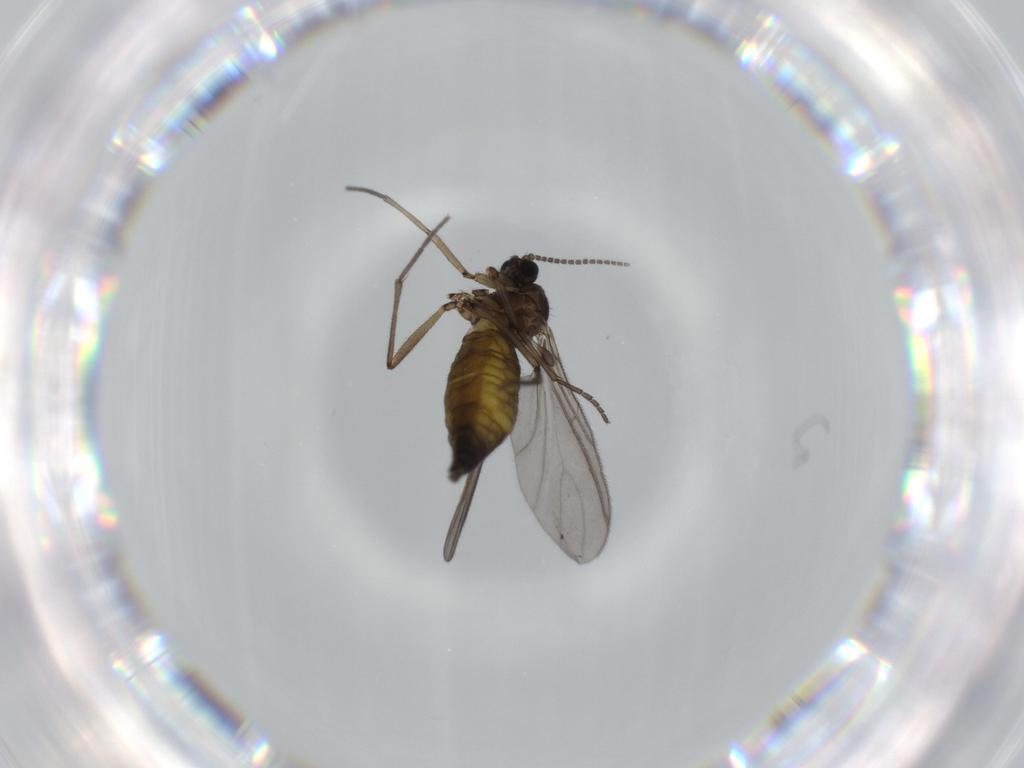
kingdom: Animalia
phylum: Arthropoda
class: Insecta
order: Diptera
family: Sciaridae
